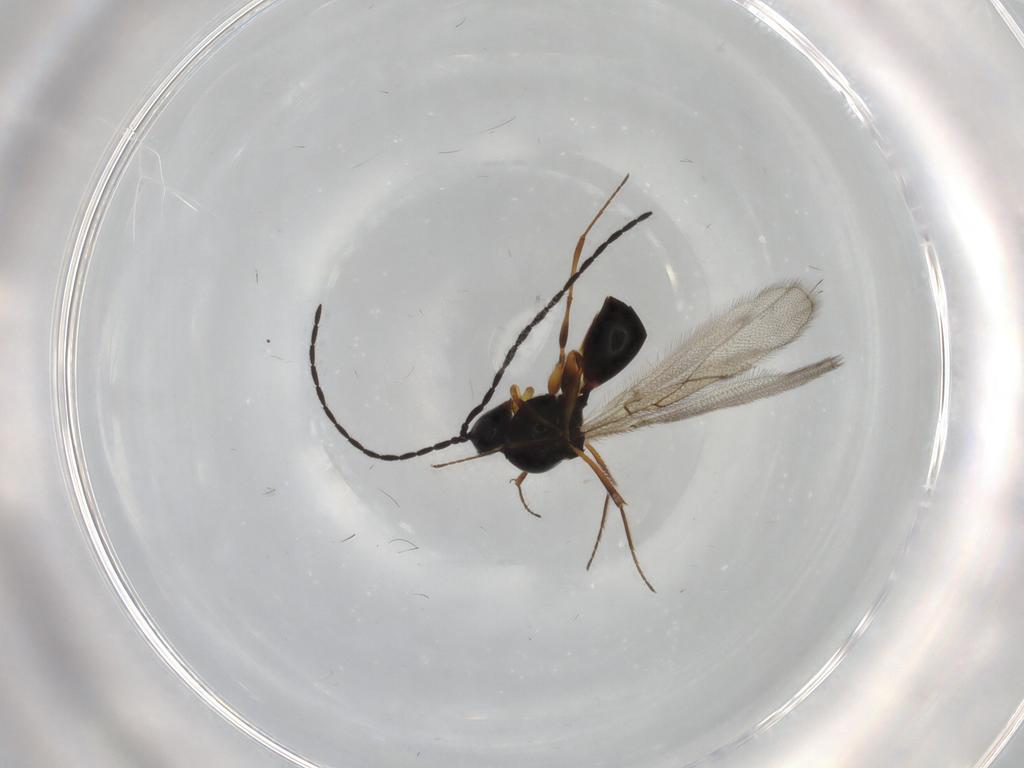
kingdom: Animalia
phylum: Arthropoda
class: Insecta
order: Hymenoptera
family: Figitidae
